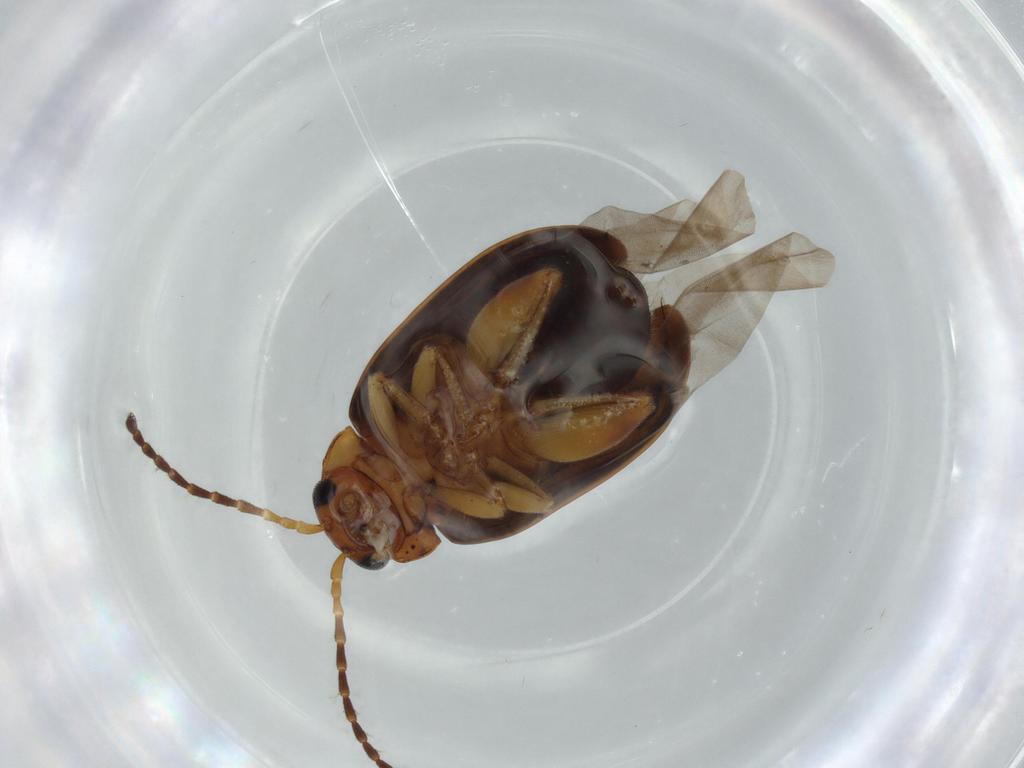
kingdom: Animalia
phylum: Arthropoda
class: Insecta
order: Coleoptera
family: Chrysomelidae
